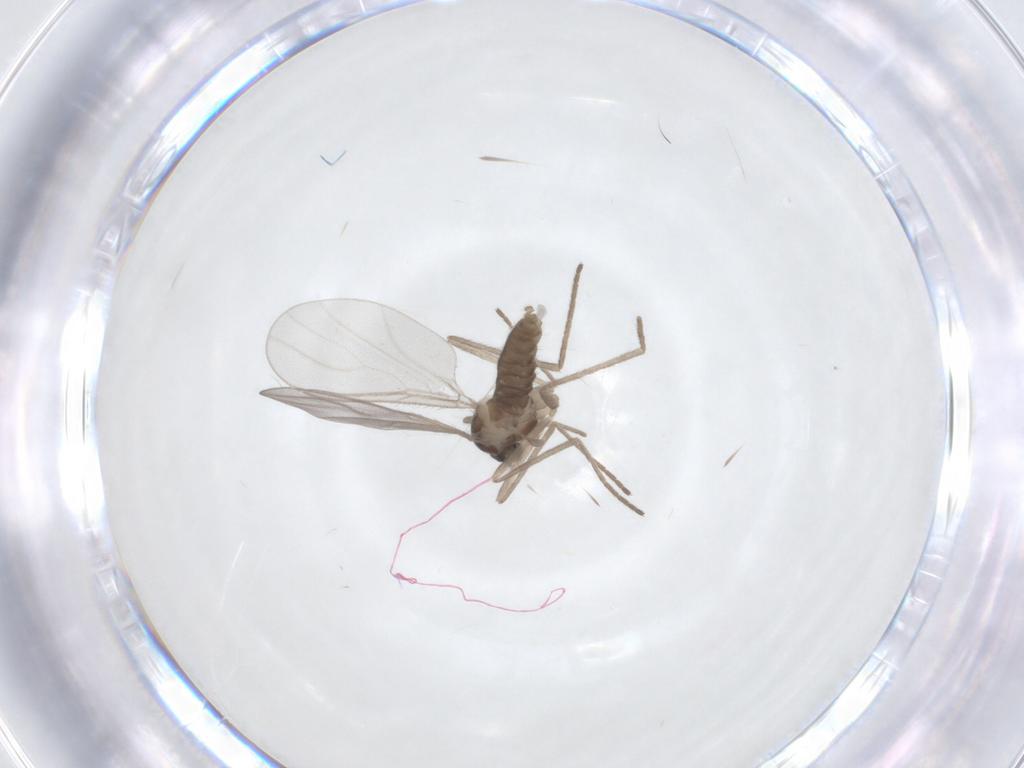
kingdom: Animalia
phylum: Arthropoda
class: Insecta
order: Diptera
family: Cecidomyiidae
